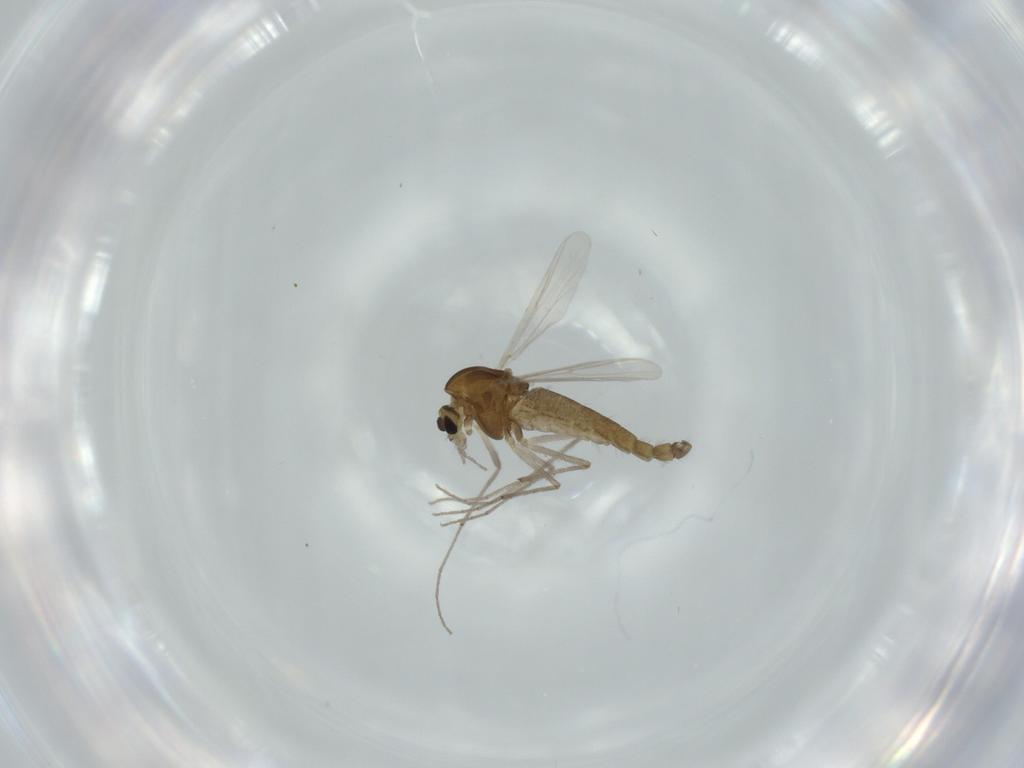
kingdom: Animalia
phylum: Arthropoda
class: Insecta
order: Diptera
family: Chironomidae
